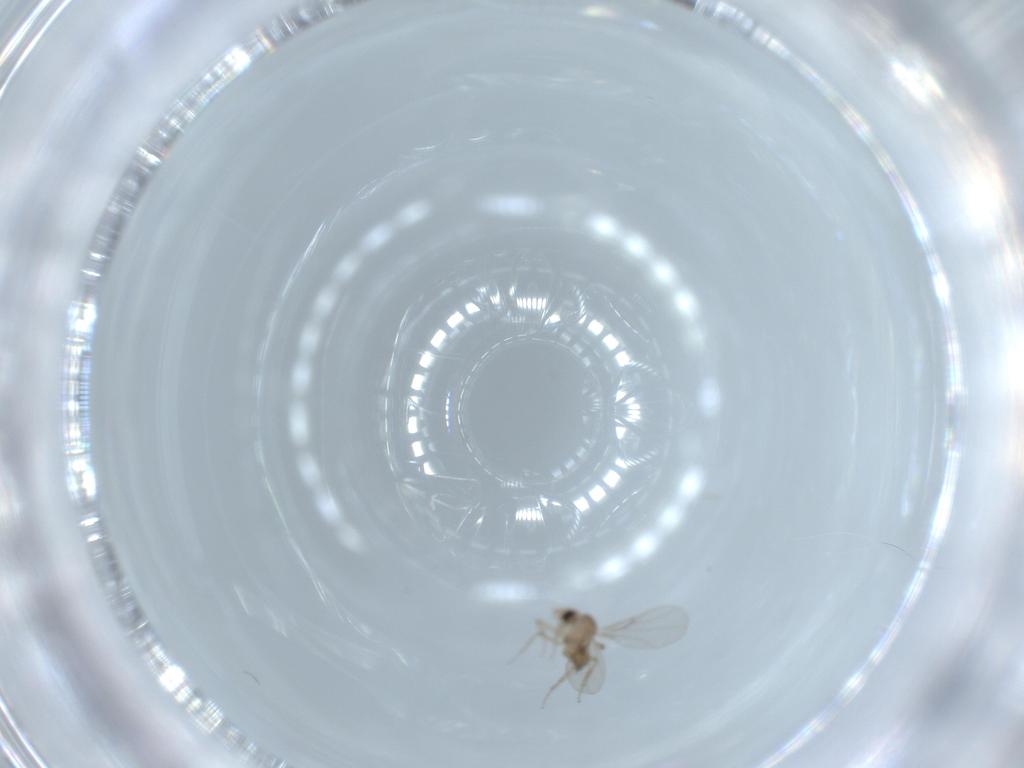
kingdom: Animalia
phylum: Arthropoda
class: Insecta
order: Diptera
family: Cecidomyiidae
